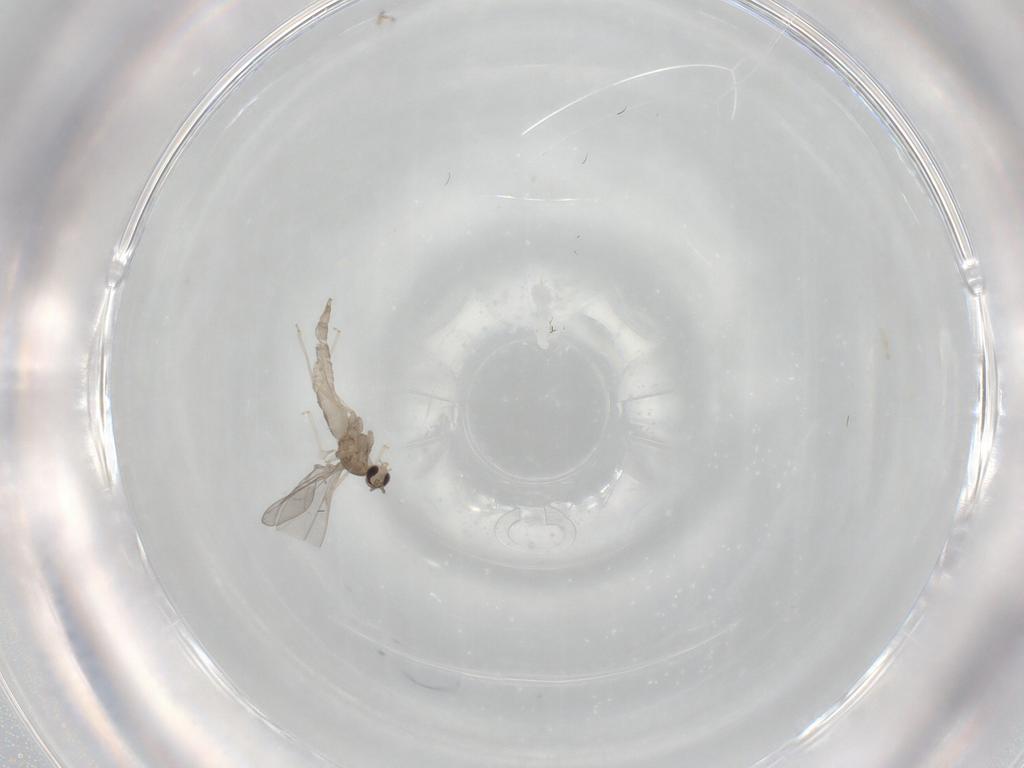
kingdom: Animalia
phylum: Arthropoda
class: Insecta
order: Diptera
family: Cecidomyiidae
